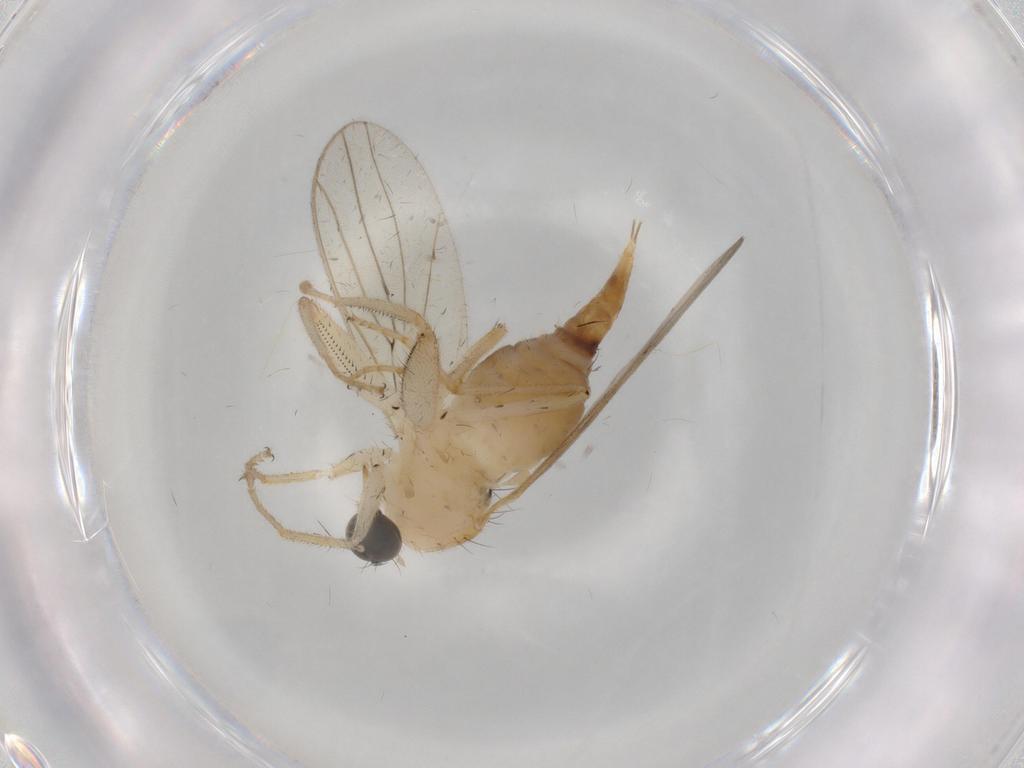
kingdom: Animalia
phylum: Arthropoda
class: Insecta
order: Diptera
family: Hybotidae
